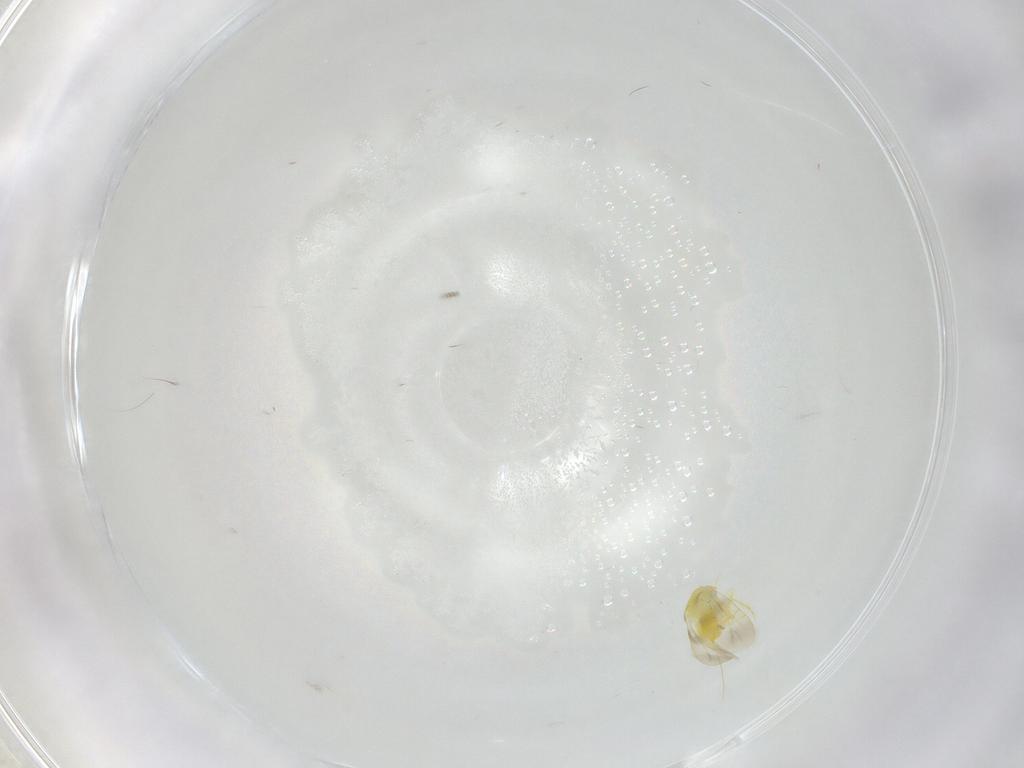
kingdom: Animalia
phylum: Arthropoda
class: Insecta
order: Hemiptera
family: Aleyrodidae
